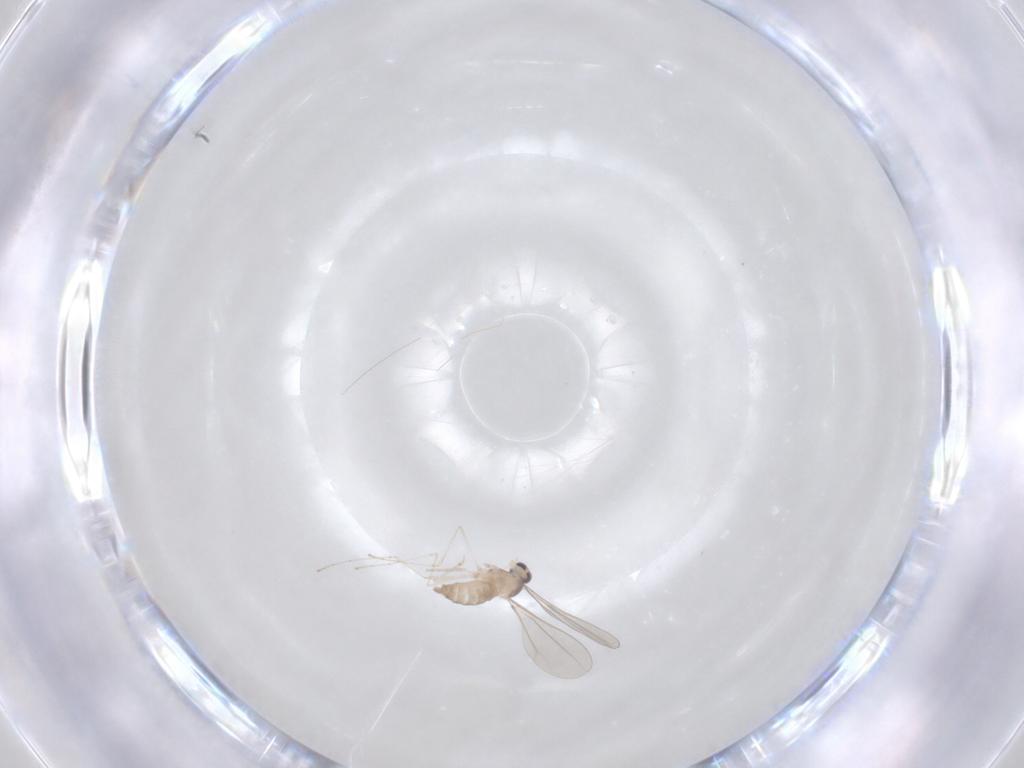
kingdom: Animalia
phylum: Arthropoda
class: Insecta
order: Diptera
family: Cecidomyiidae
